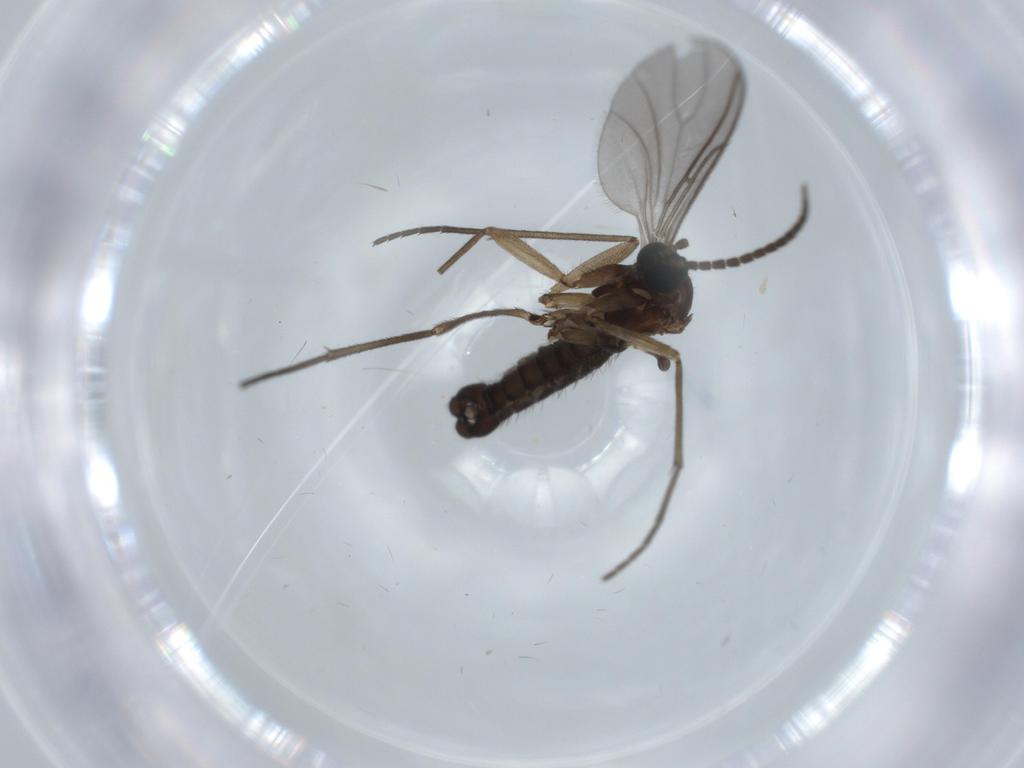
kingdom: Animalia
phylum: Arthropoda
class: Insecta
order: Diptera
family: Sciaridae
